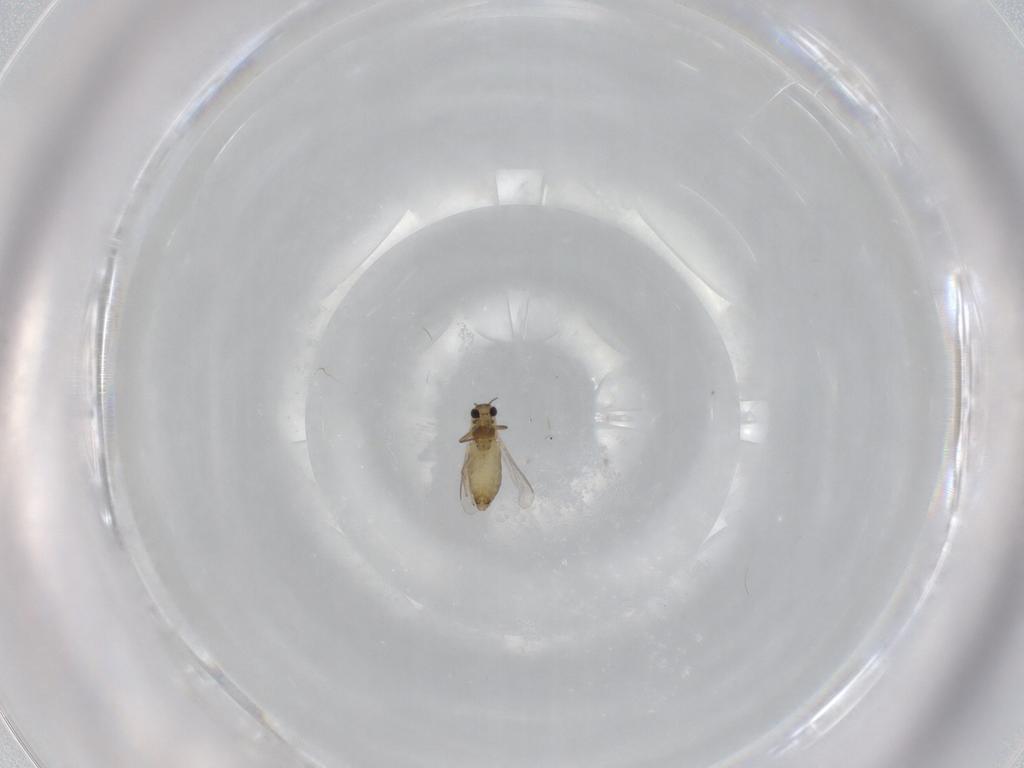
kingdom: Animalia
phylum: Arthropoda
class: Insecta
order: Diptera
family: Chironomidae
